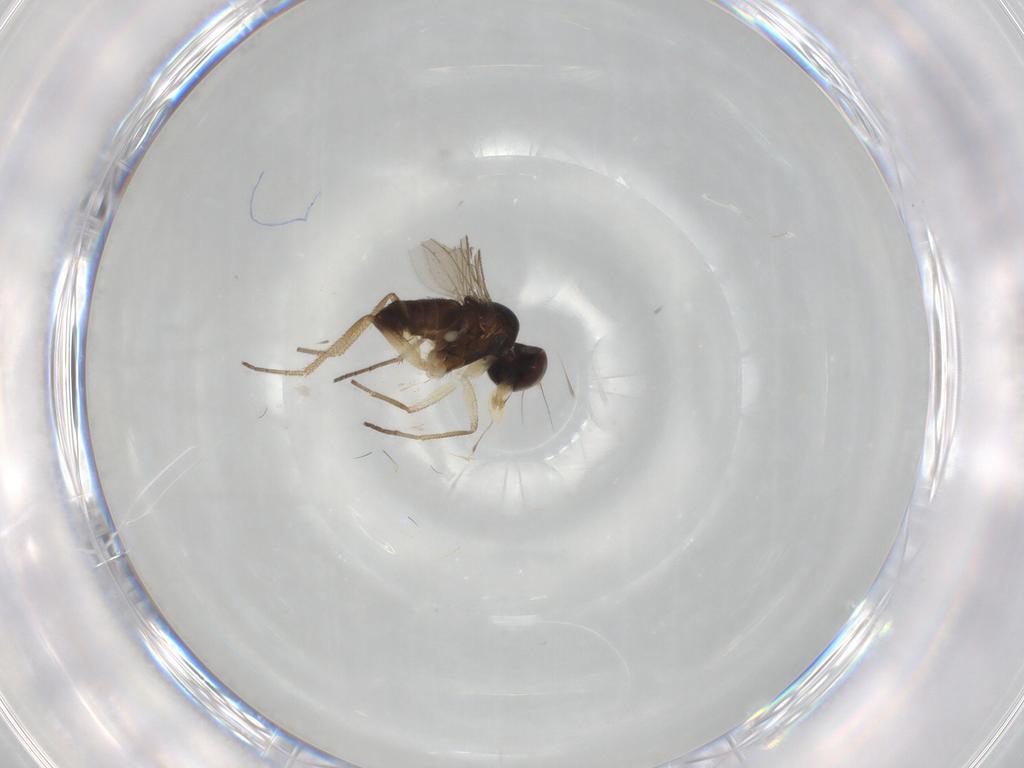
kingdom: Animalia
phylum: Arthropoda
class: Insecta
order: Diptera
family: Dolichopodidae
